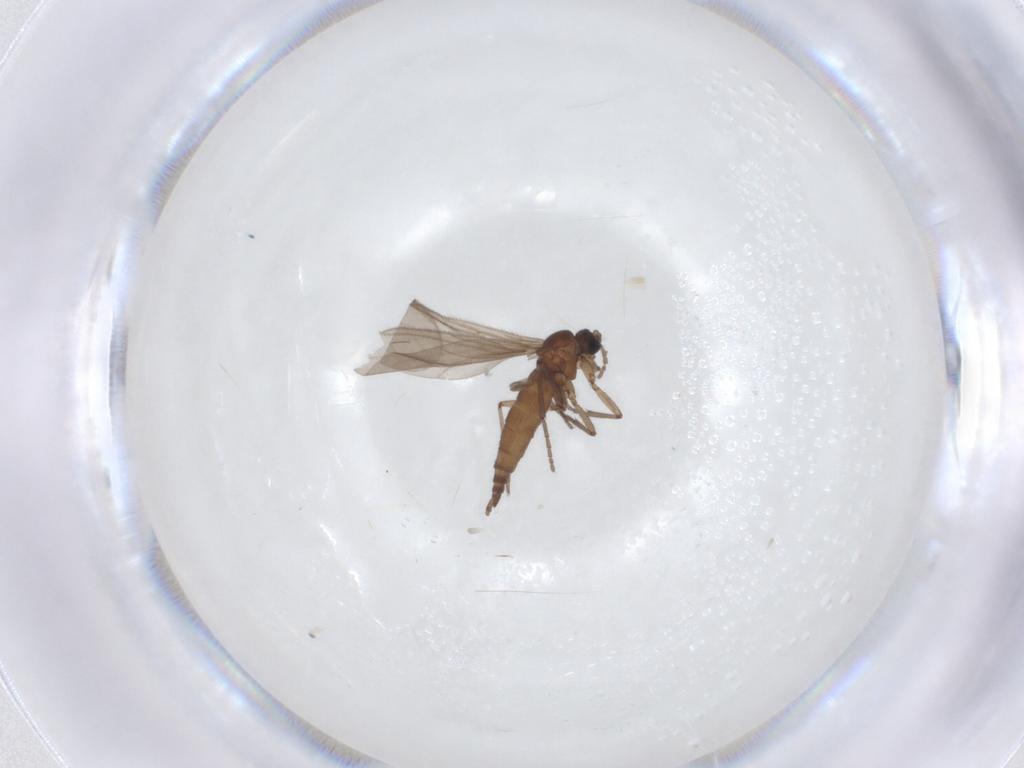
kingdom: Animalia
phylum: Arthropoda
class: Insecta
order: Diptera
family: Sciaridae
